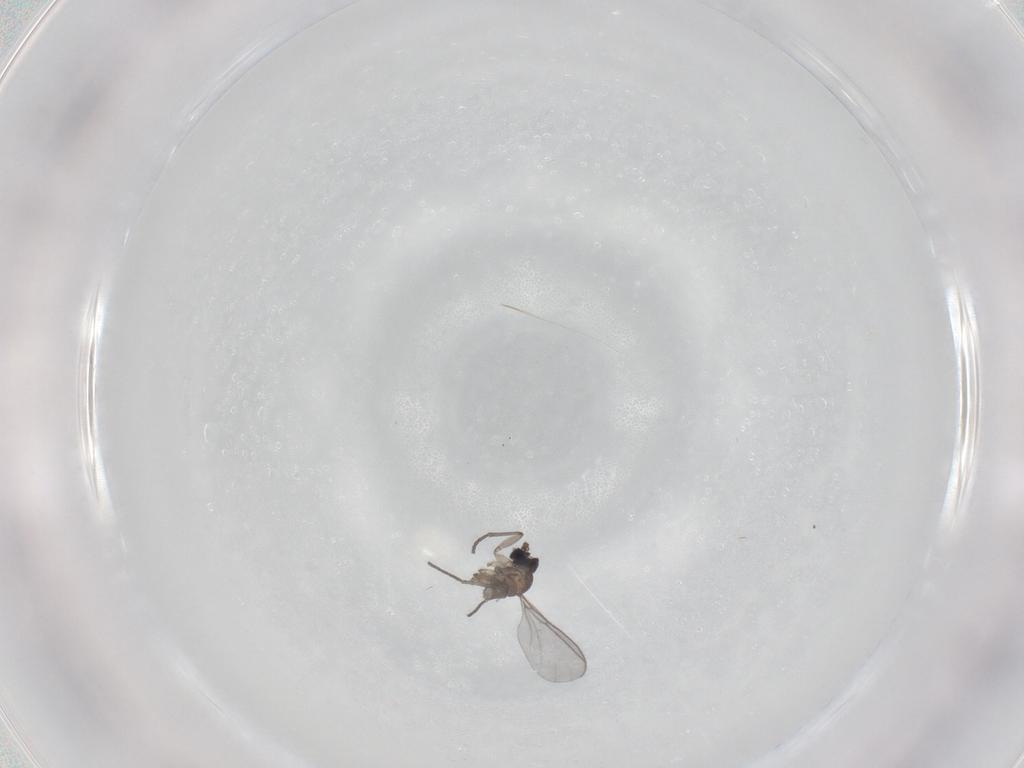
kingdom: Animalia
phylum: Arthropoda
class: Insecta
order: Diptera
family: Sciaridae
